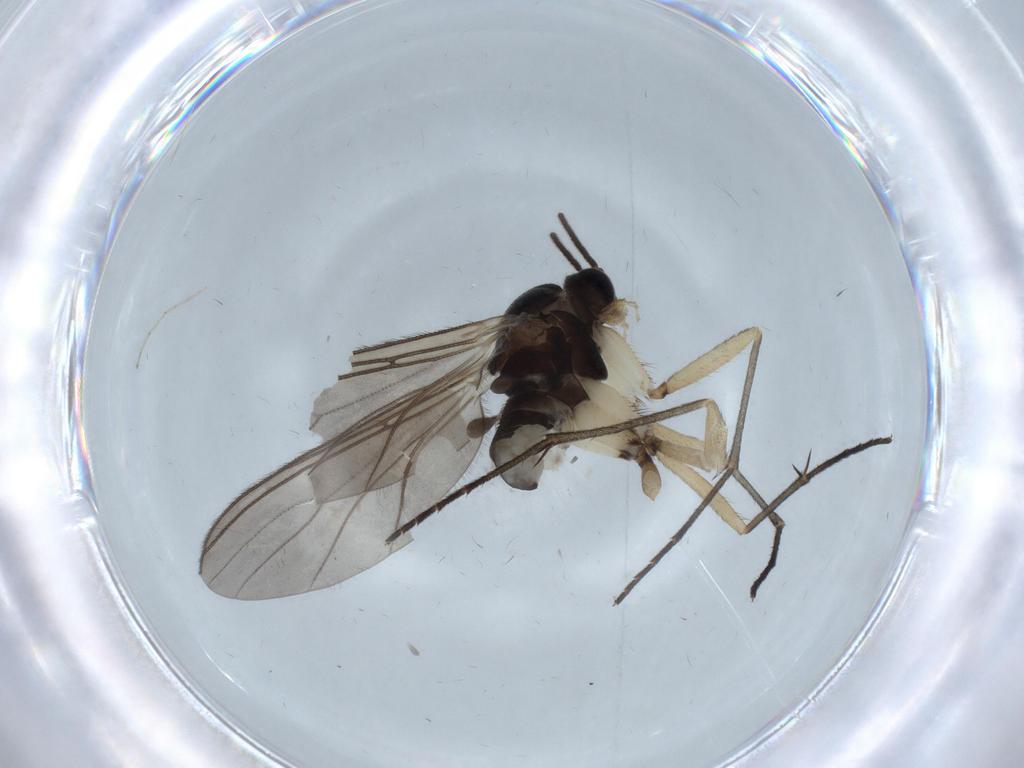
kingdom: Animalia
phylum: Arthropoda
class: Insecta
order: Diptera
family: Sciaridae
